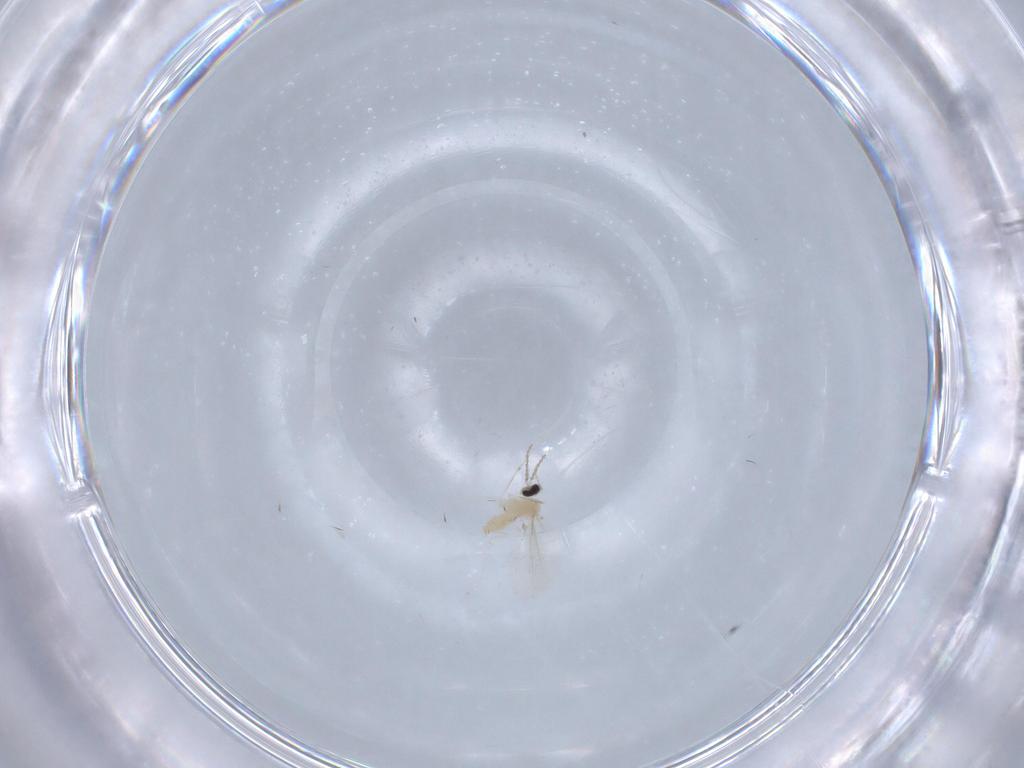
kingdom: Animalia
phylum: Arthropoda
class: Insecta
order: Diptera
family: Cecidomyiidae
